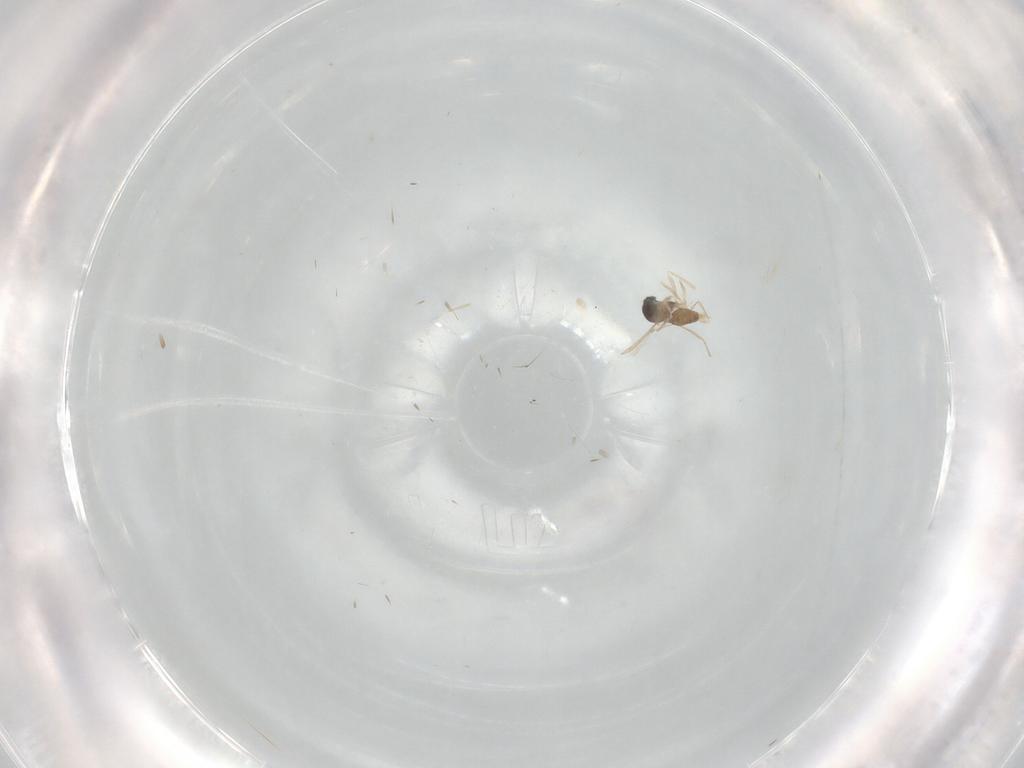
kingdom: Animalia
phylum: Arthropoda
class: Insecta
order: Diptera
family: Cecidomyiidae
